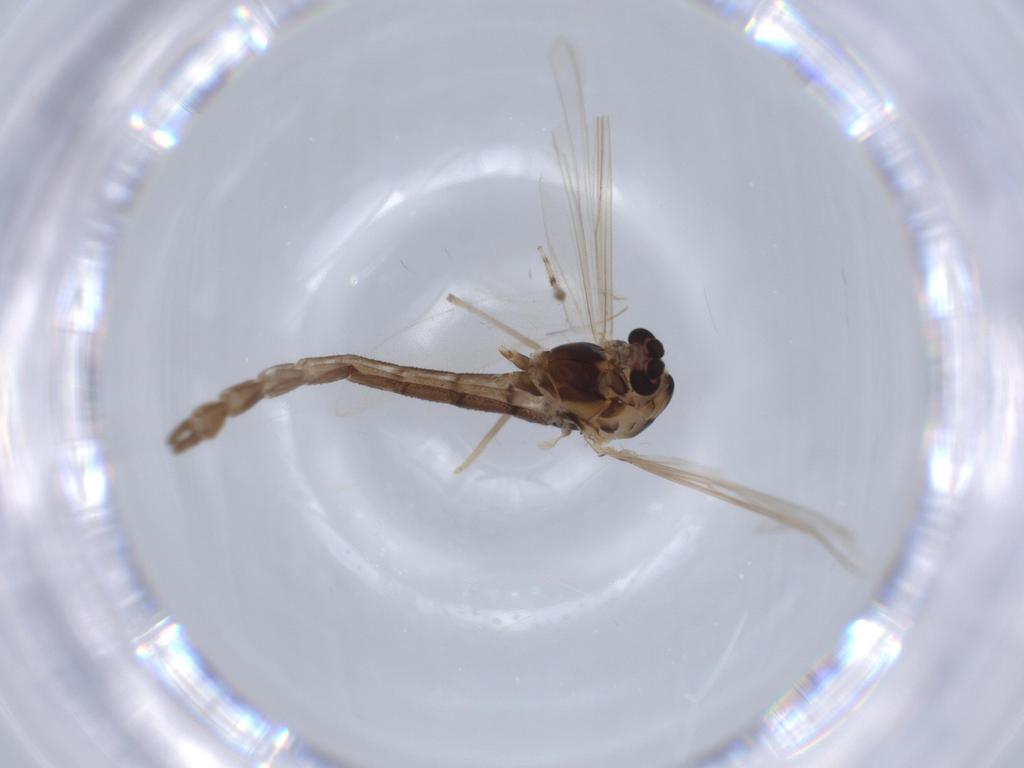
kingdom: Animalia
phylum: Arthropoda
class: Insecta
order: Diptera
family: Chironomidae
